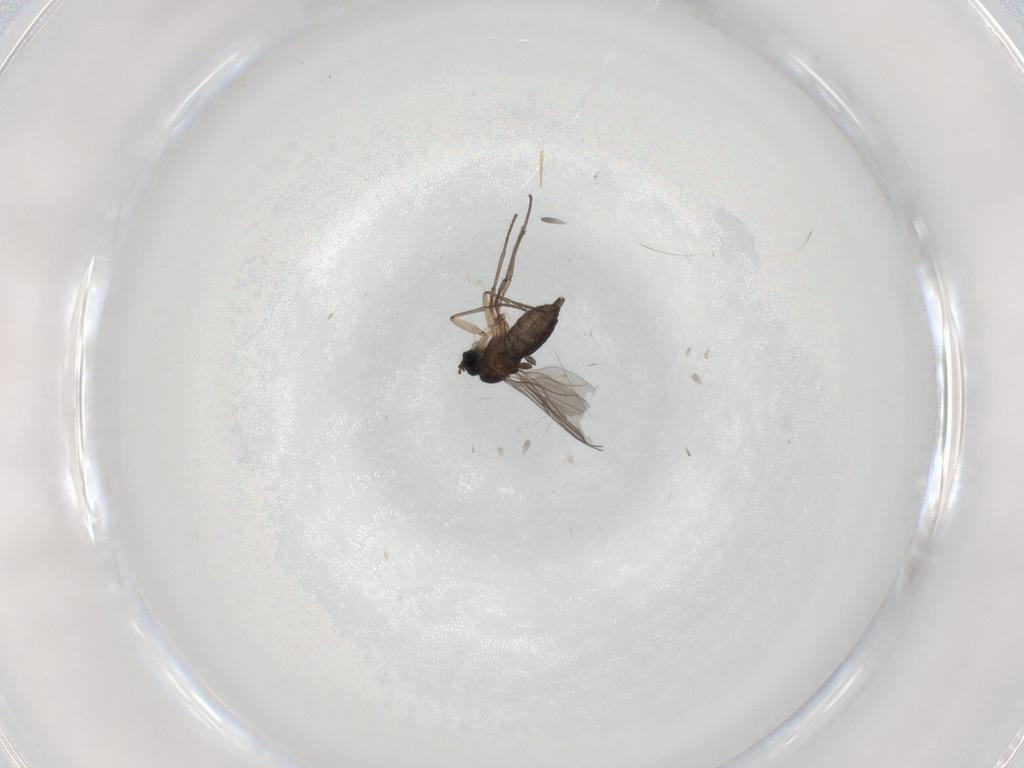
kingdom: Animalia
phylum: Arthropoda
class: Insecta
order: Diptera
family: Sciaridae
